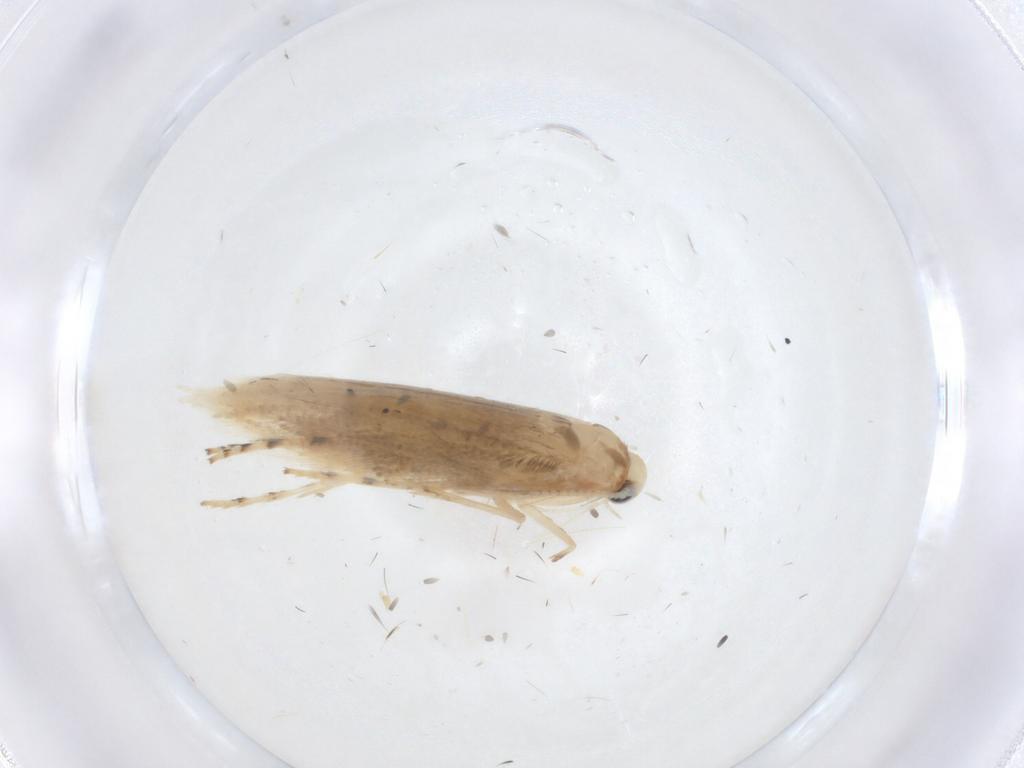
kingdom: Animalia
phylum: Arthropoda
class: Insecta
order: Lepidoptera
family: Gracillariidae
